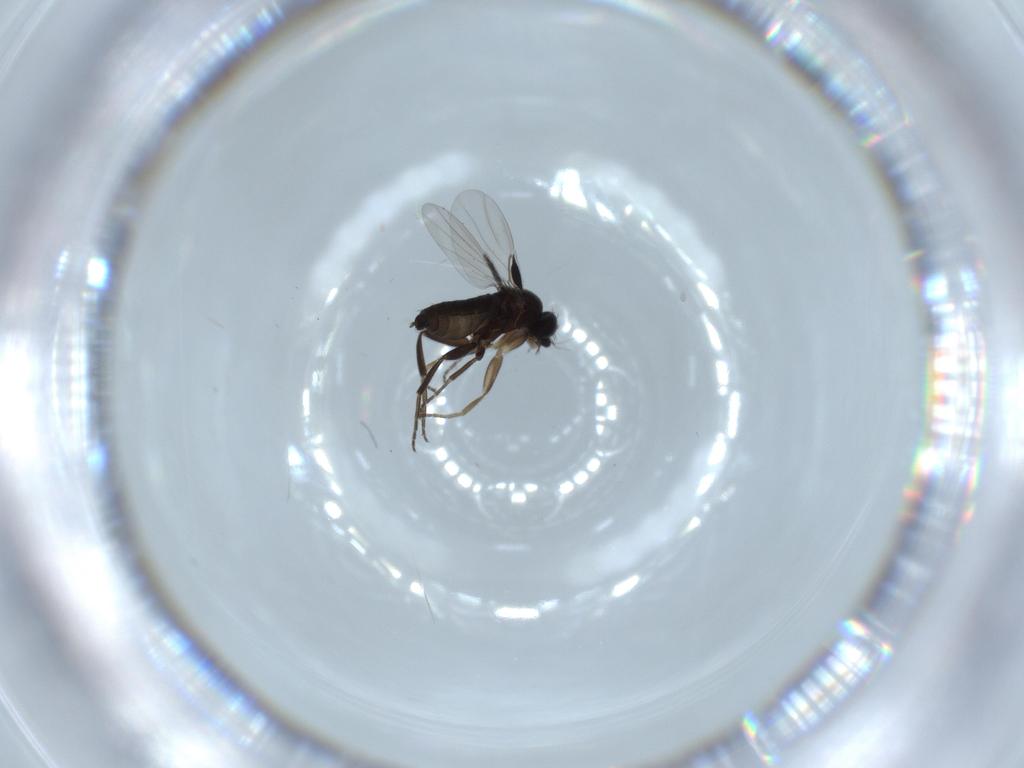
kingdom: Animalia
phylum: Arthropoda
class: Insecta
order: Diptera
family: Phoridae
